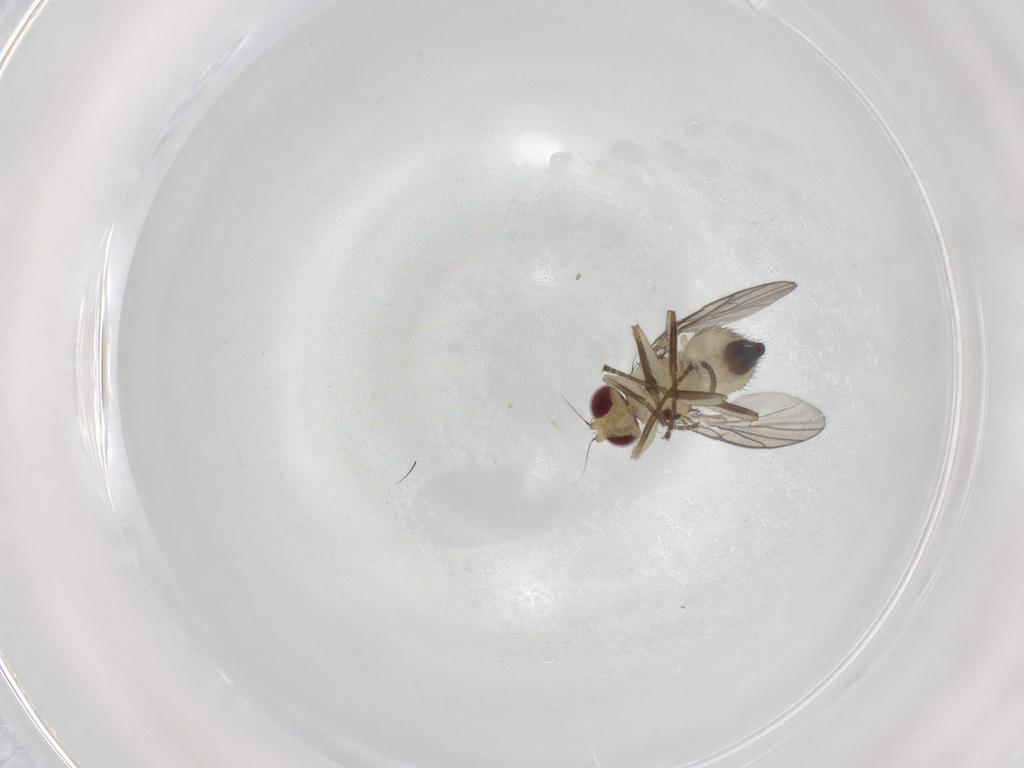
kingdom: Animalia
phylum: Arthropoda
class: Insecta
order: Diptera
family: Agromyzidae
